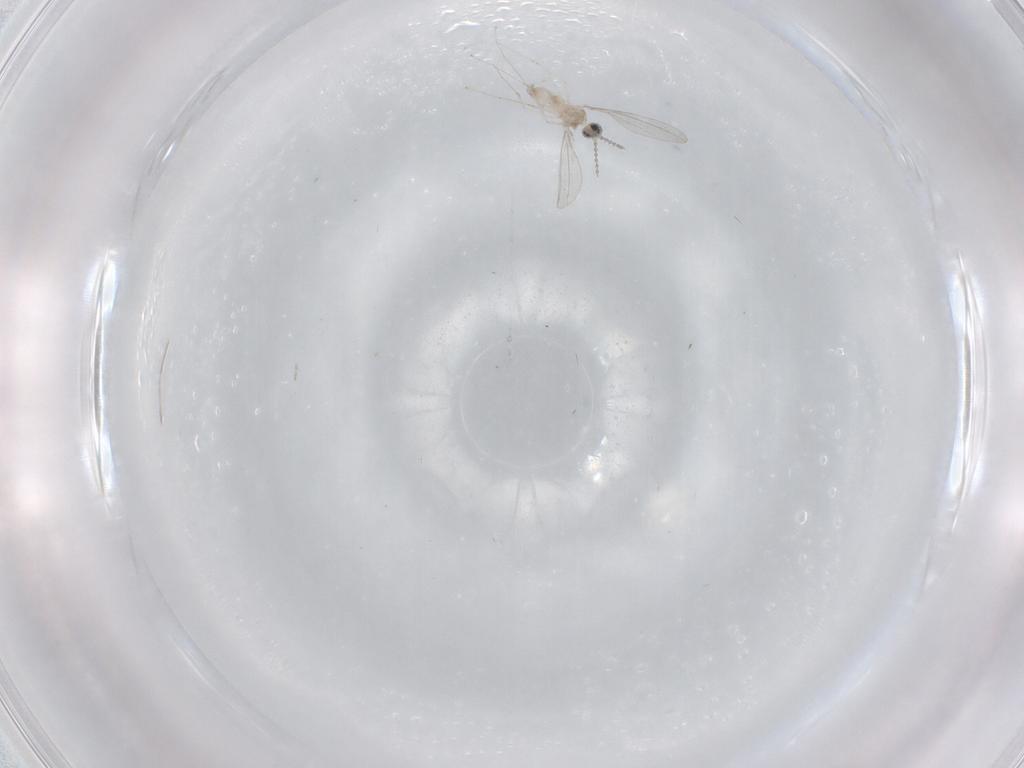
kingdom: Animalia
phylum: Arthropoda
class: Insecta
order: Diptera
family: Cecidomyiidae
